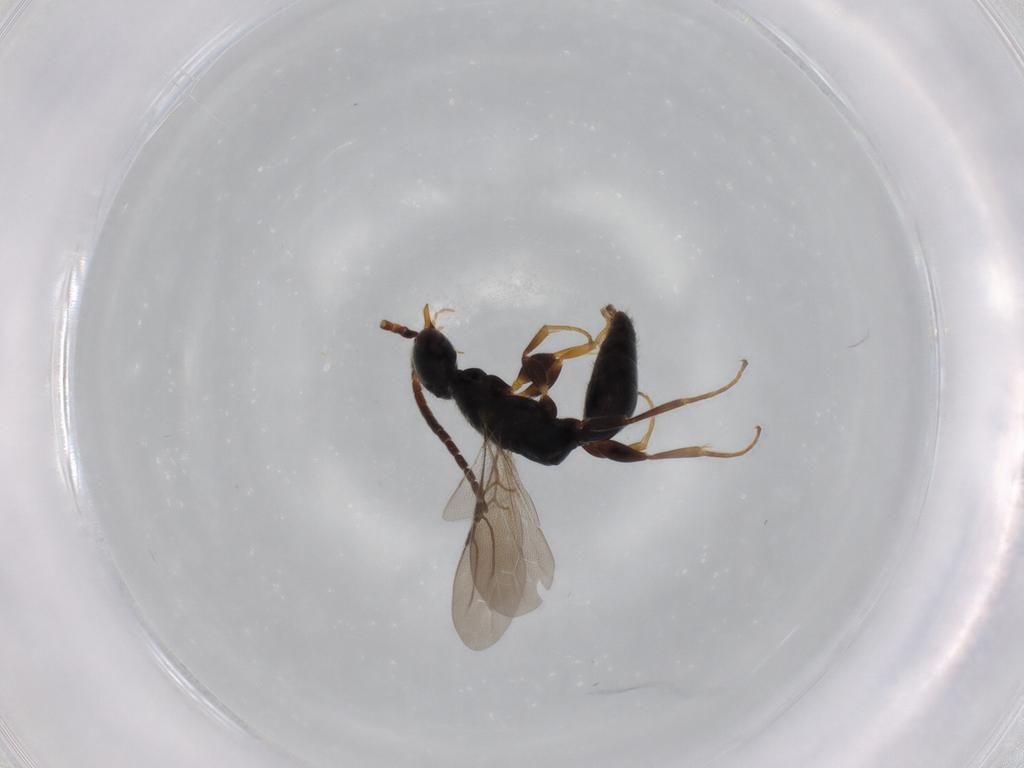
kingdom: Animalia
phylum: Arthropoda
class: Insecta
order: Hymenoptera
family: Bethylidae
